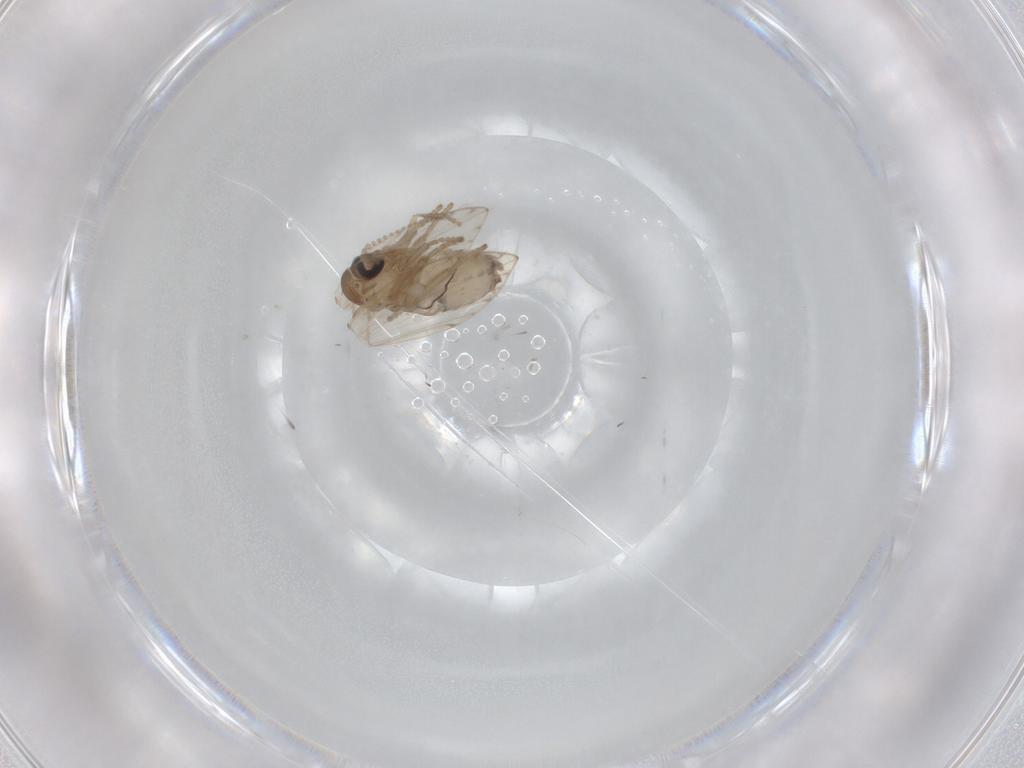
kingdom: Animalia
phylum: Arthropoda
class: Insecta
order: Diptera
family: Psychodidae
